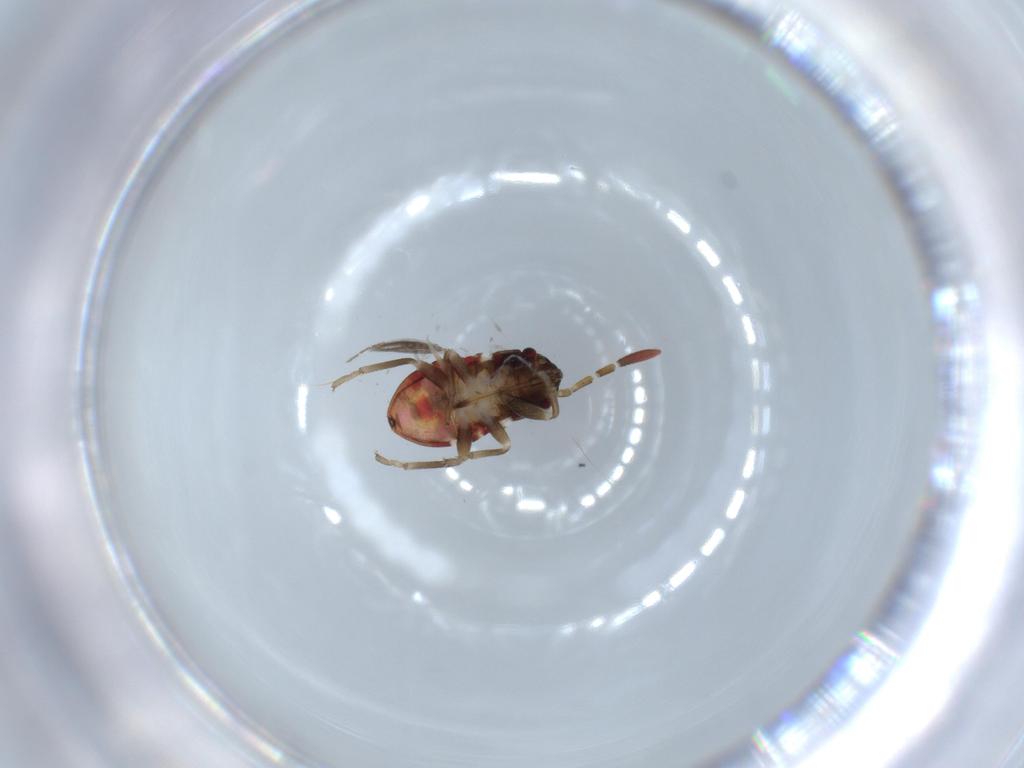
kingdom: Animalia
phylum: Arthropoda
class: Insecta
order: Hemiptera
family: Rhyparochromidae
